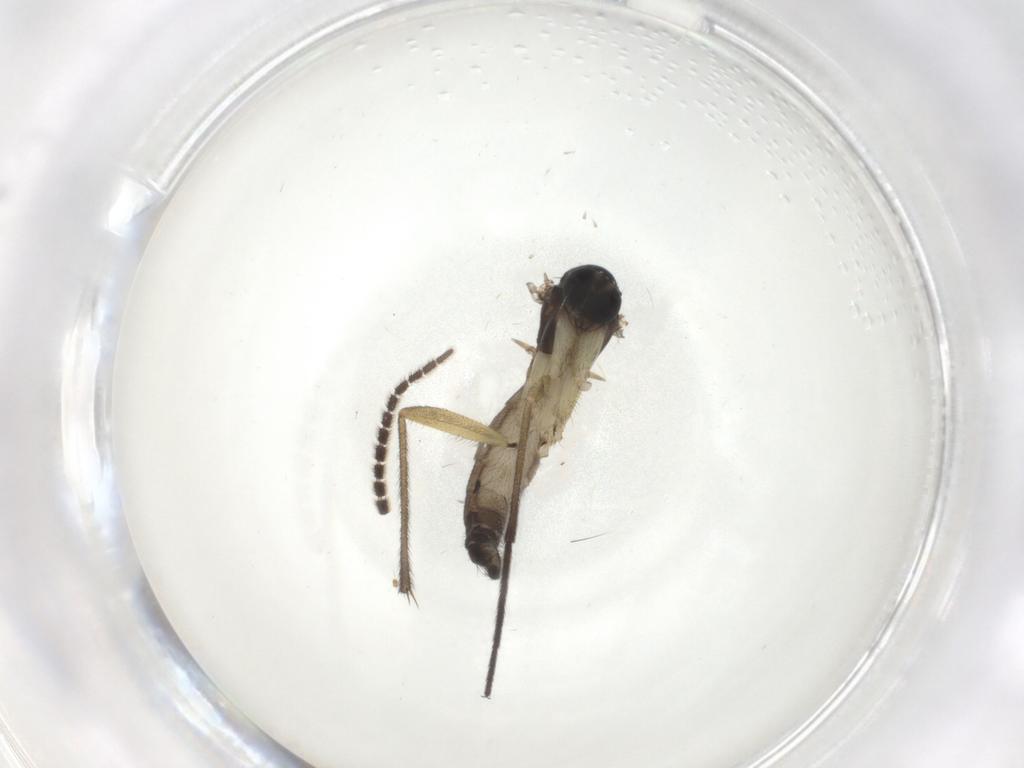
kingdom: Animalia
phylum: Arthropoda
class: Insecta
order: Diptera
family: Sciaridae
